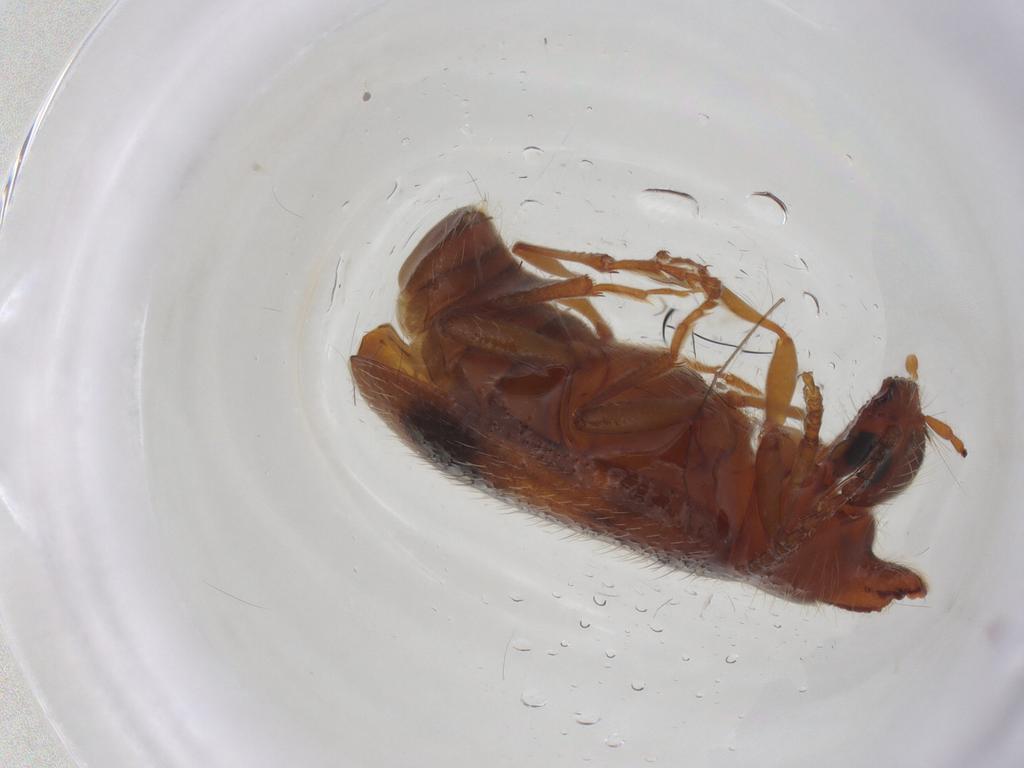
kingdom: Animalia
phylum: Arthropoda
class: Insecta
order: Coleoptera
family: Anthicidae
